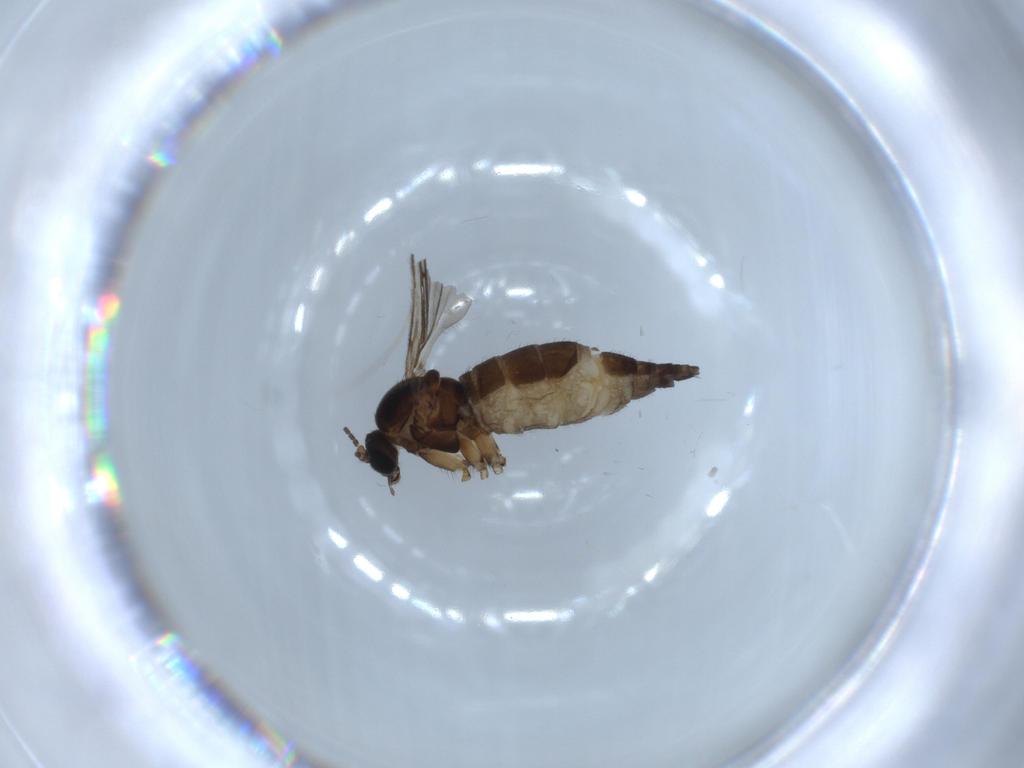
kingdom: Animalia
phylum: Arthropoda
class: Insecta
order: Diptera
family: Sciaridae
